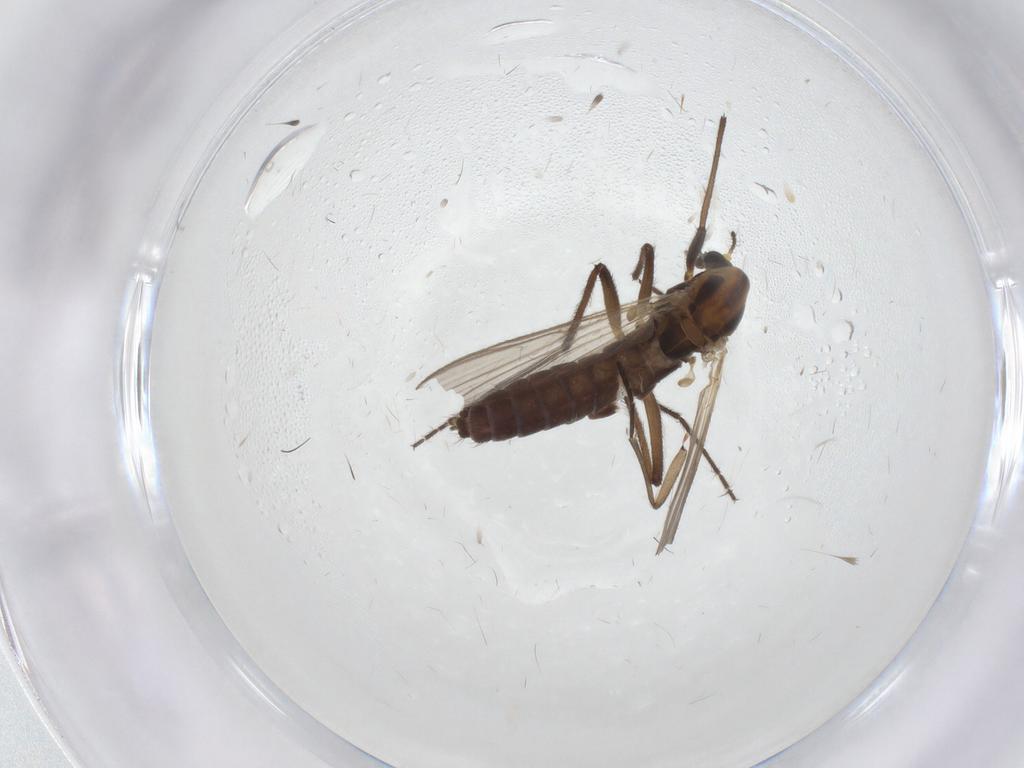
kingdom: Animalia
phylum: Arthropoda
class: Insecta
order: Diptera
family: Chironomidae
